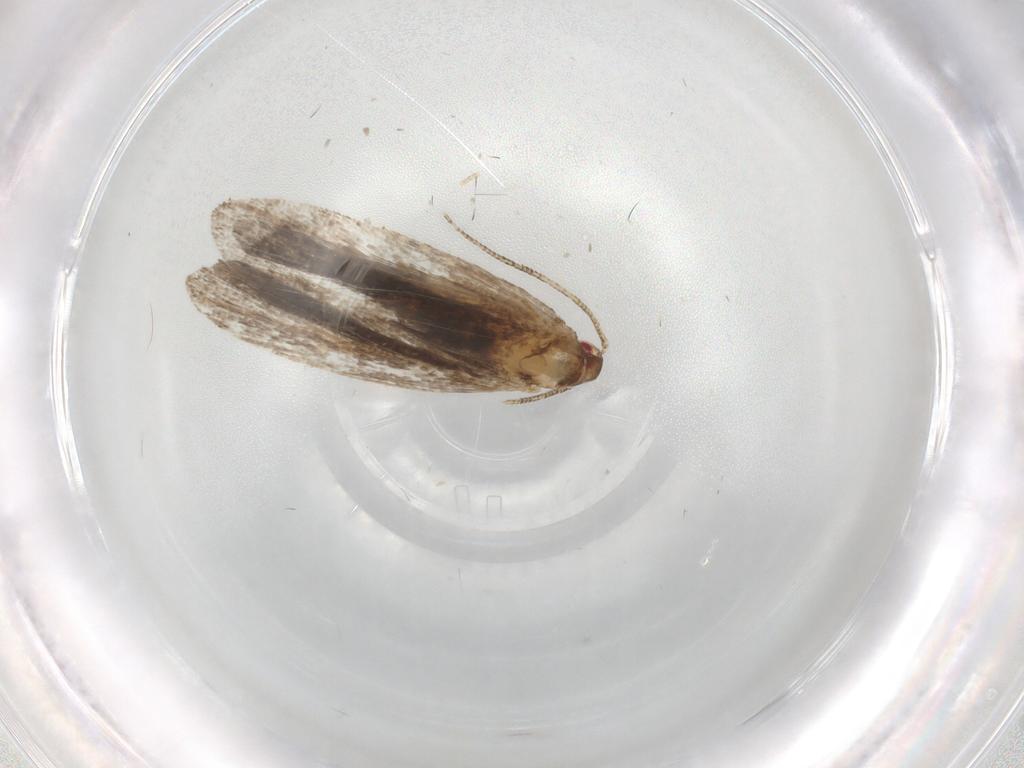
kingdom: Animalia
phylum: Arthropoda
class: Insecta
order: Lepidoptera
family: Gelechiidae
